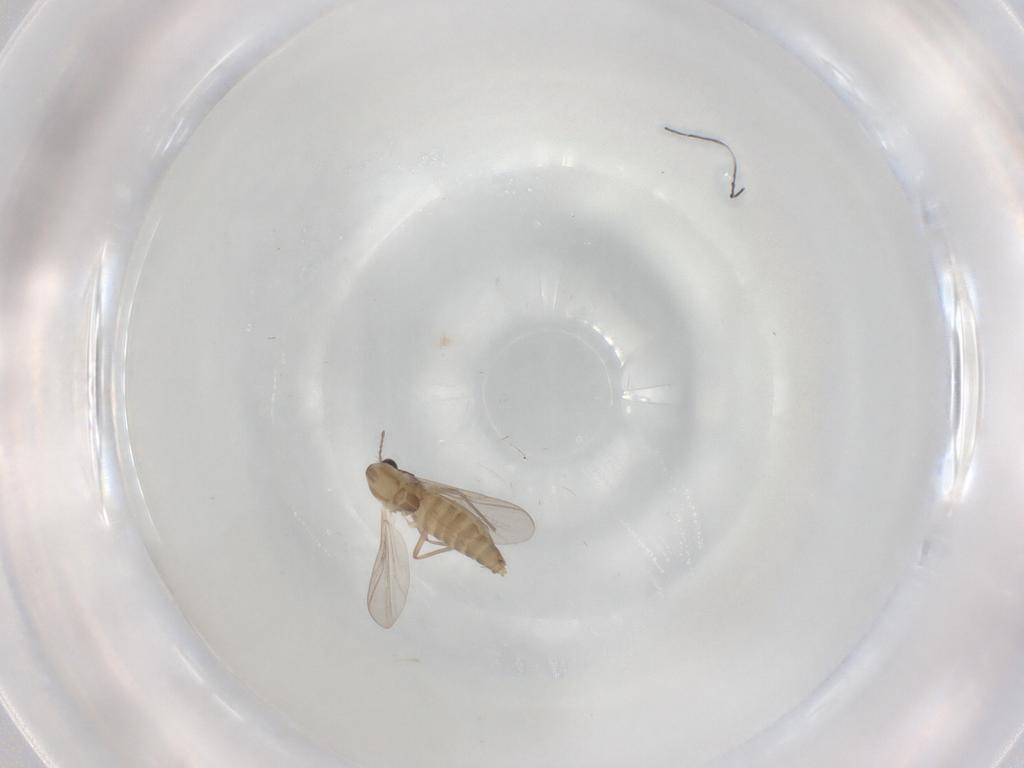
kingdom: Animalia
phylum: Arthropoda
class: Insecta
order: Diptera
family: Chironomidae
